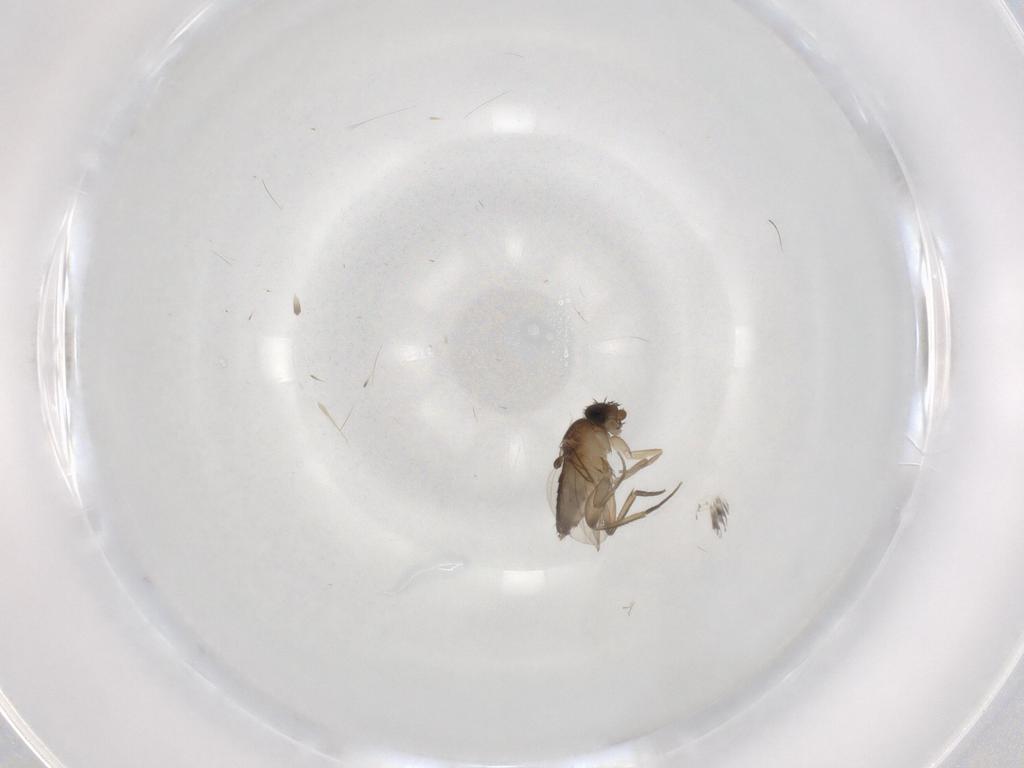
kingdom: Animalia
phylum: Arthropoda
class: Insecta
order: Diptera
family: Phoridae
